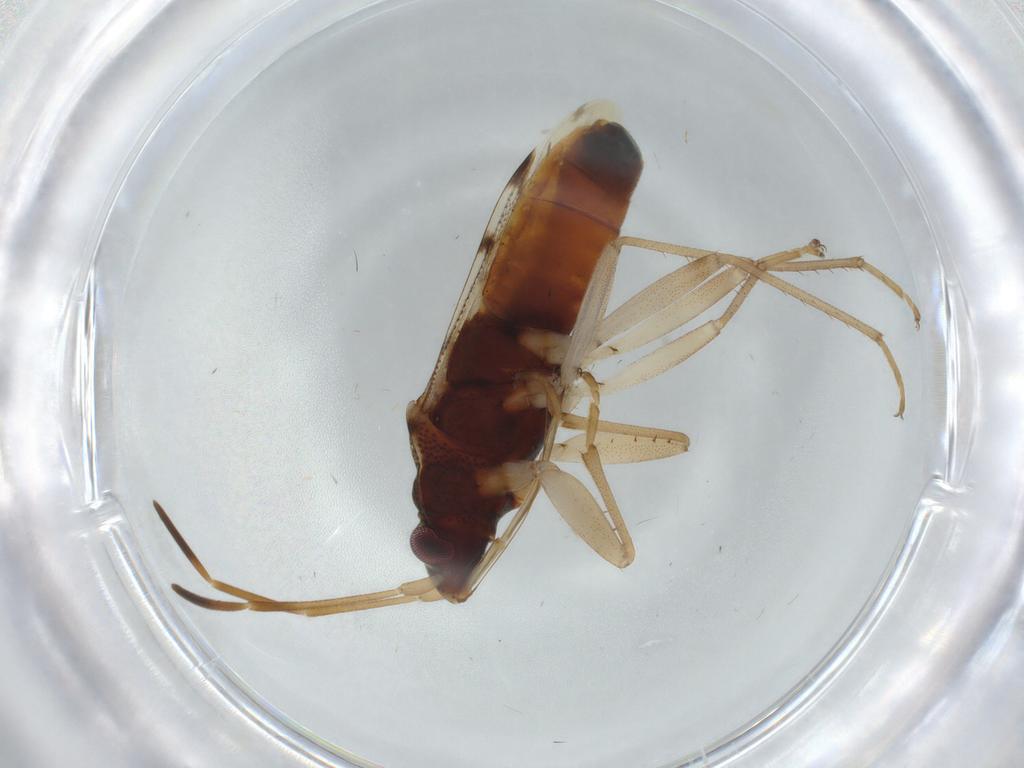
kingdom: Animalia
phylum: Arthropoda
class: Insecta
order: Hemiptera
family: Rhyparochromidae
